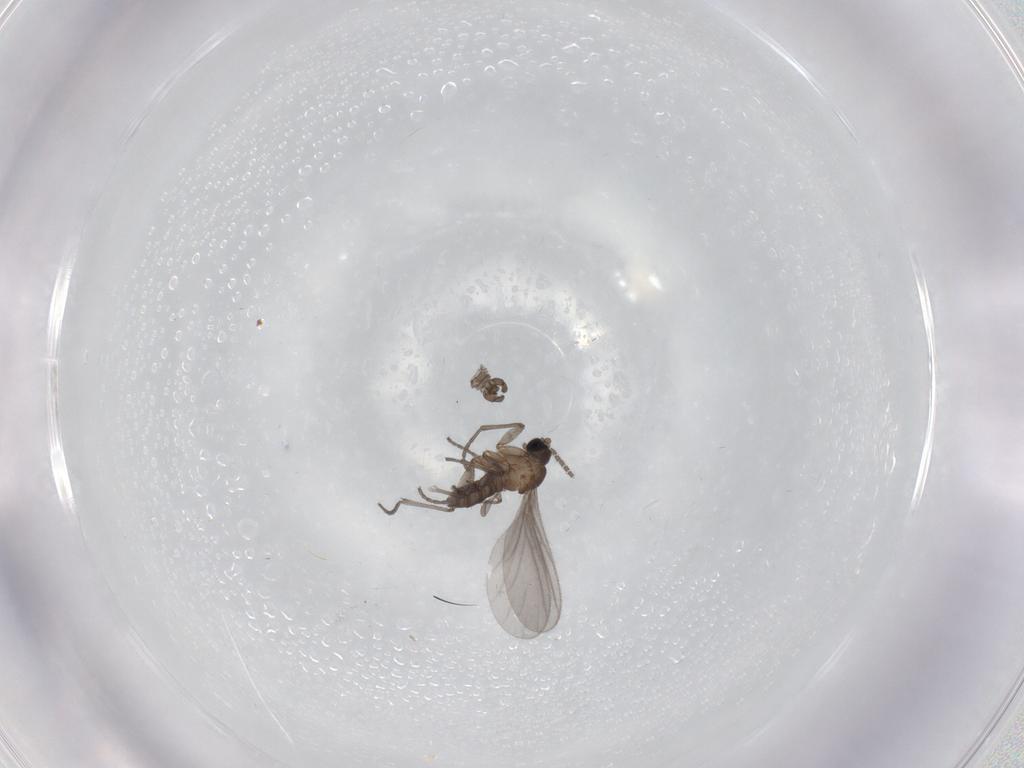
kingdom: Animalia
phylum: Arthropoda
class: Insecta
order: Diptera
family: Sciaridae
